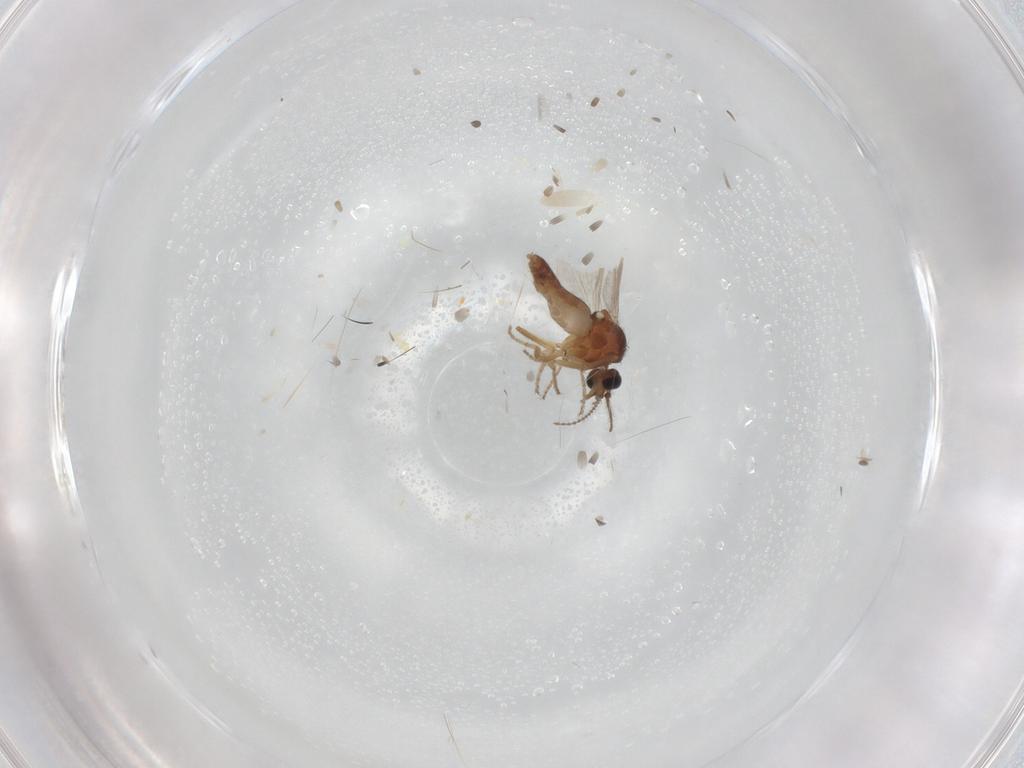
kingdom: Animalia
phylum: Arthropoda
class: Insecta
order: Diptera
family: Ceratopogonidae
